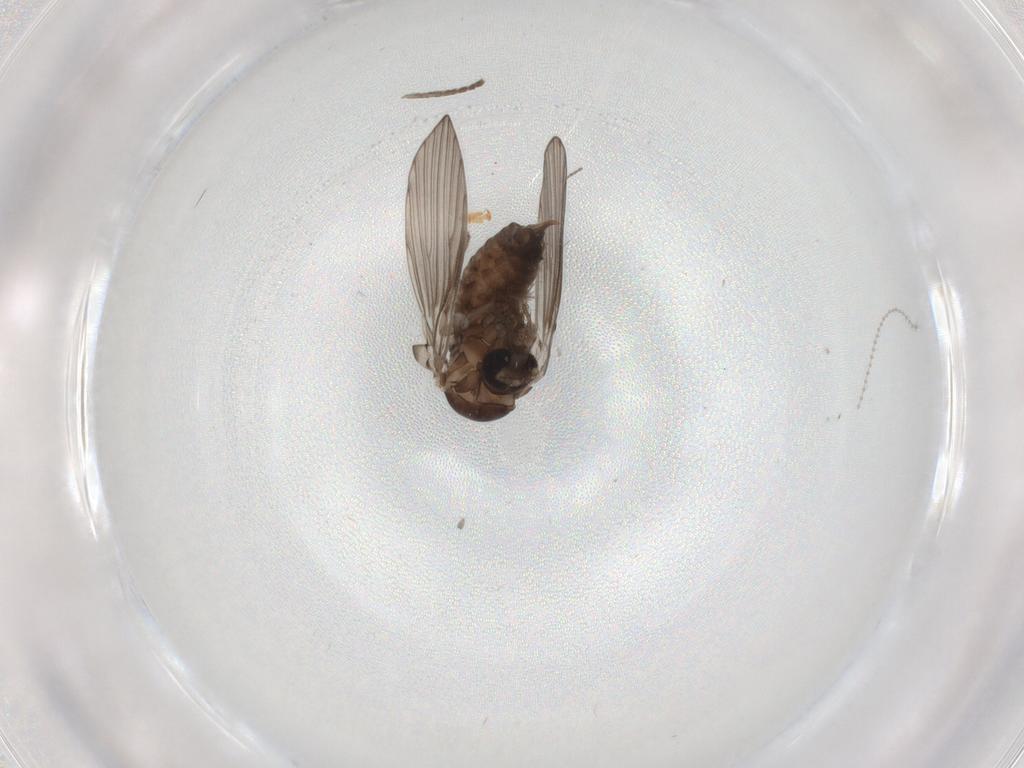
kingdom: Animalia
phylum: Arthropoda
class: Insecta
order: Diptera
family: Psychodidae
